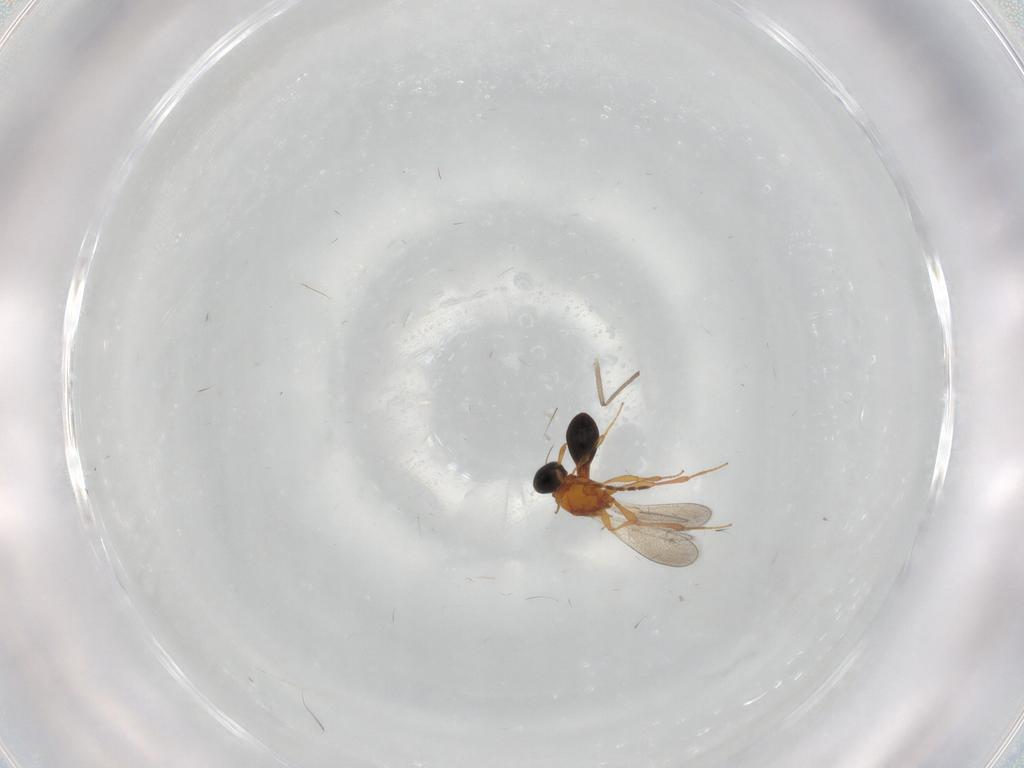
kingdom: Animalia
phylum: Arthropoda
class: Insecta
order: Hymenoptera
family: Platygastridae
